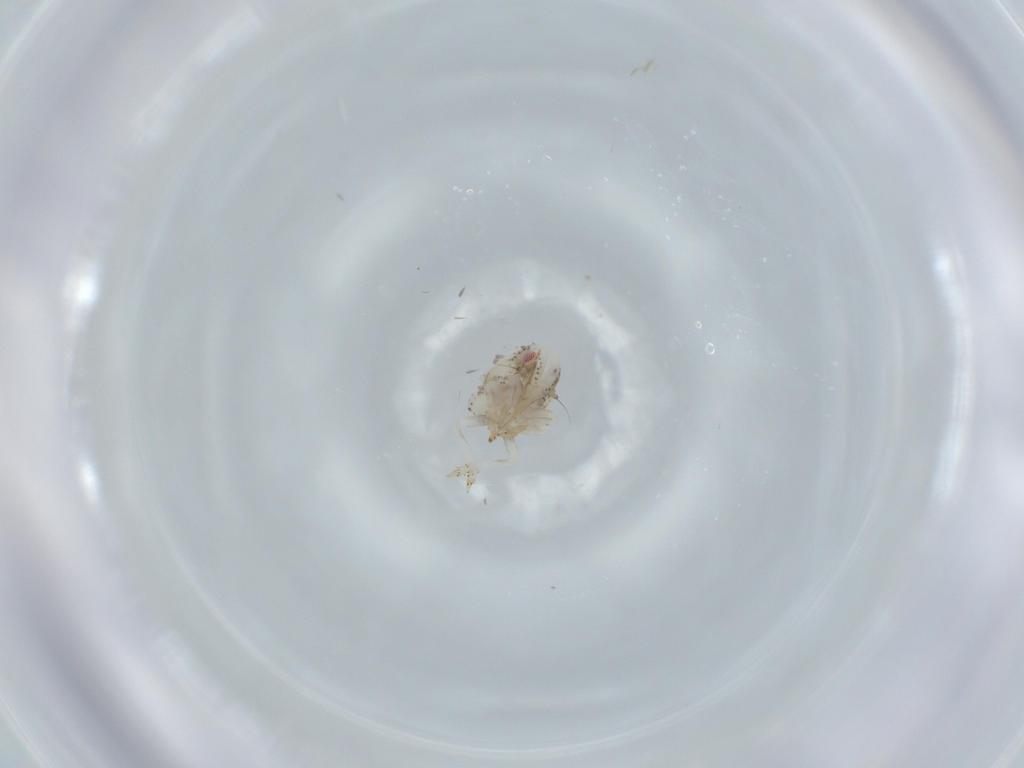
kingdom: Animalia
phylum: Arthropoda
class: Insecta
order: Hemiptera
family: Acanaloniidae
